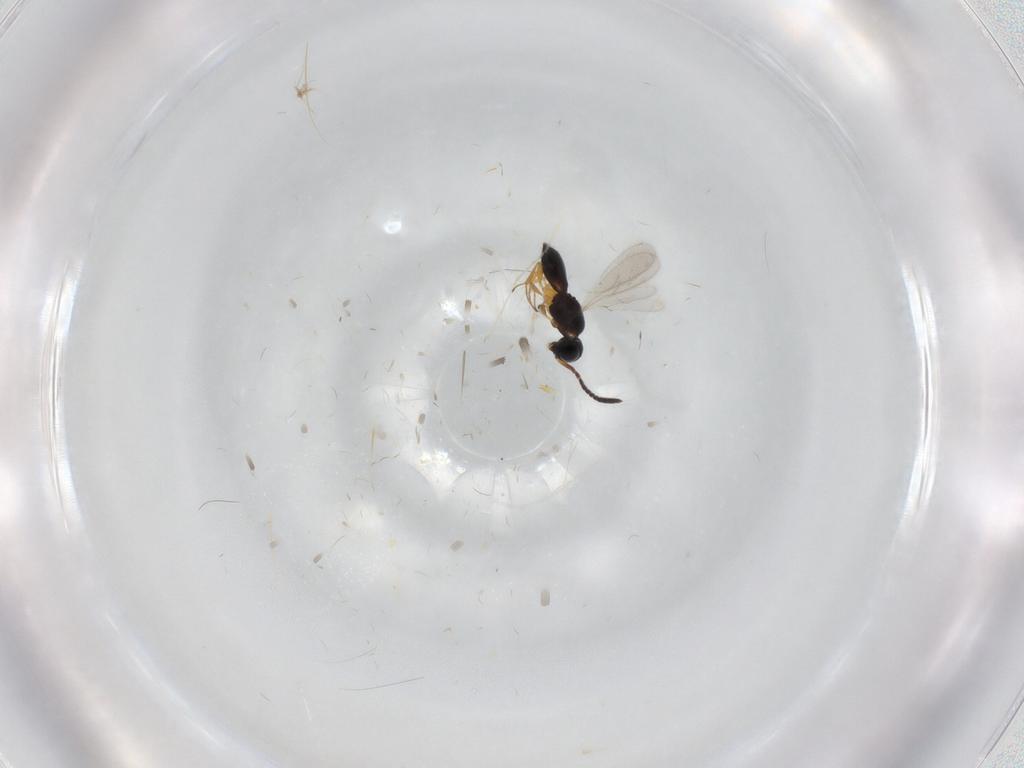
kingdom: Animalia
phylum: Arthropoda
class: Insecta
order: Hymenoptera
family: Scelionidae
